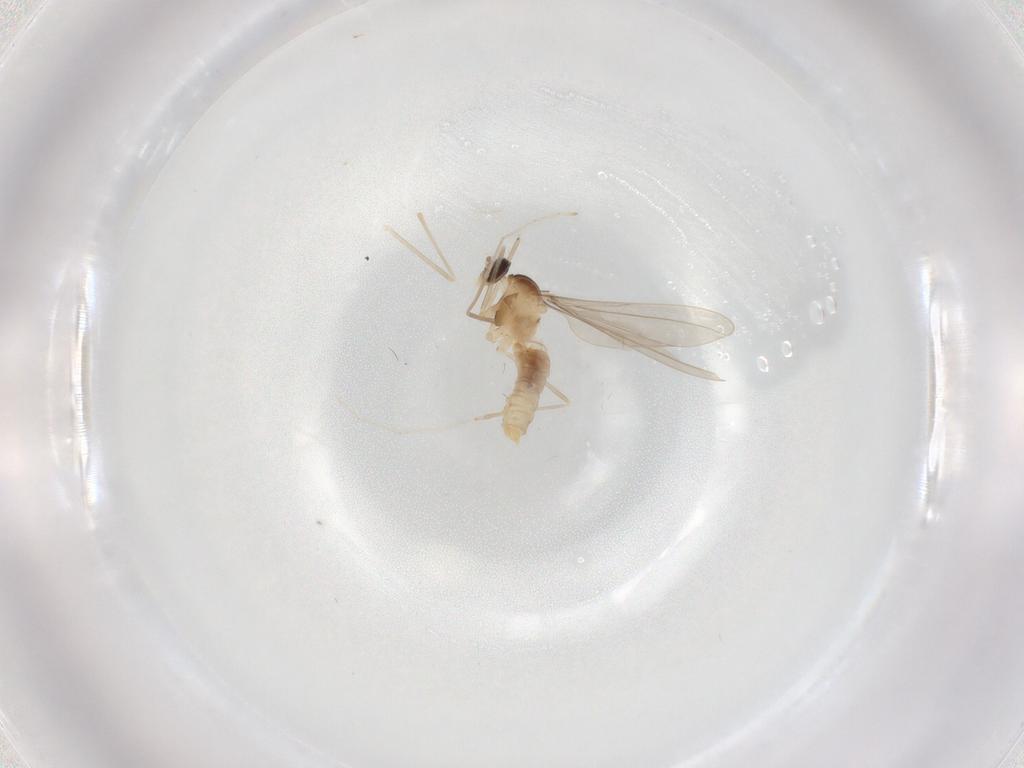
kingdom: Animalia
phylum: Arthropoda
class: Insecta
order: Diptera
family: Cecidomyiidae
